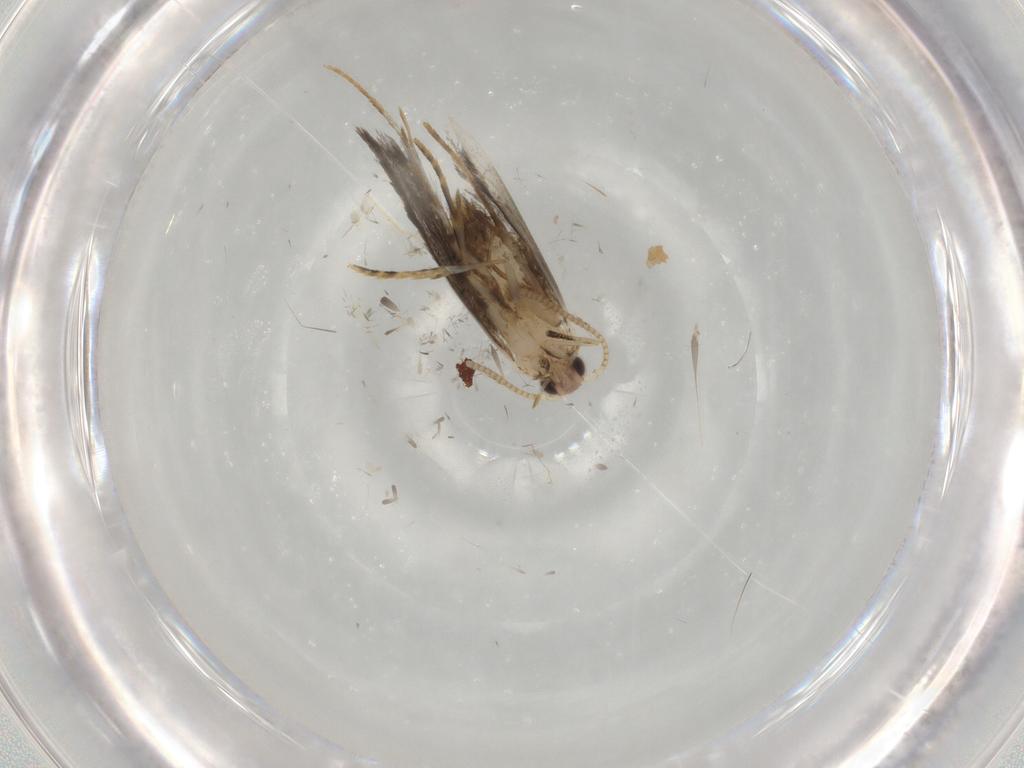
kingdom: Animalia
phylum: Arthropoda
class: Insecta
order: Lepidoptera
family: Tineidae
